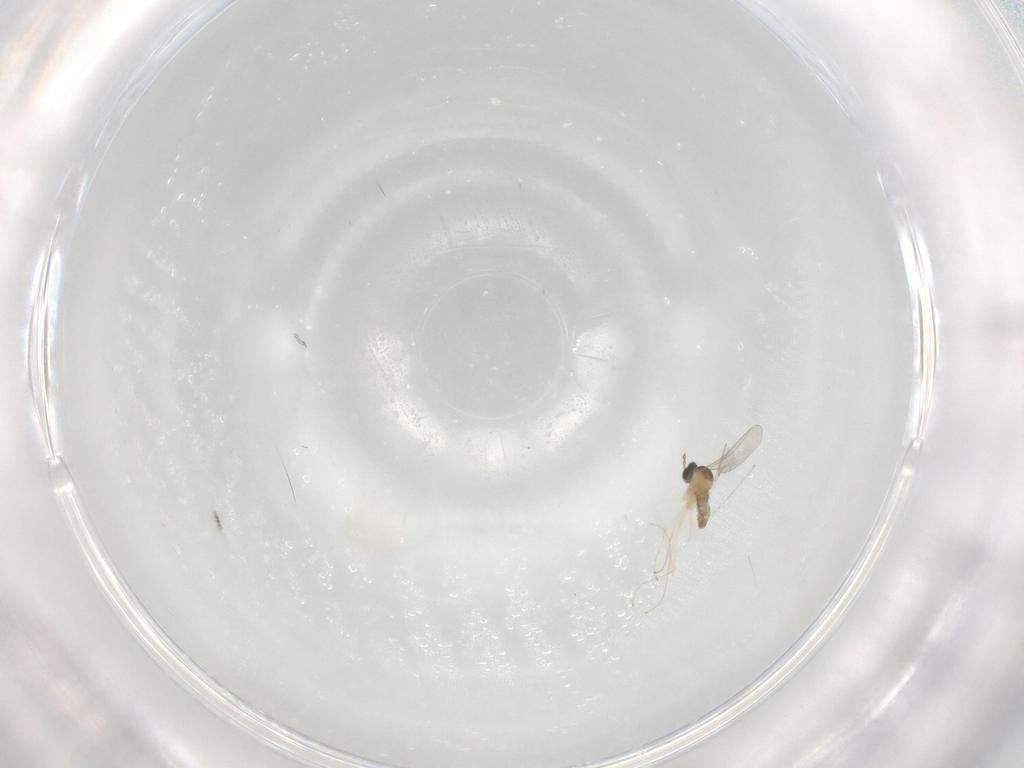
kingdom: Animalia
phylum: Arthropoda
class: Insecta
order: Diptera
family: Cecidomyiidae
